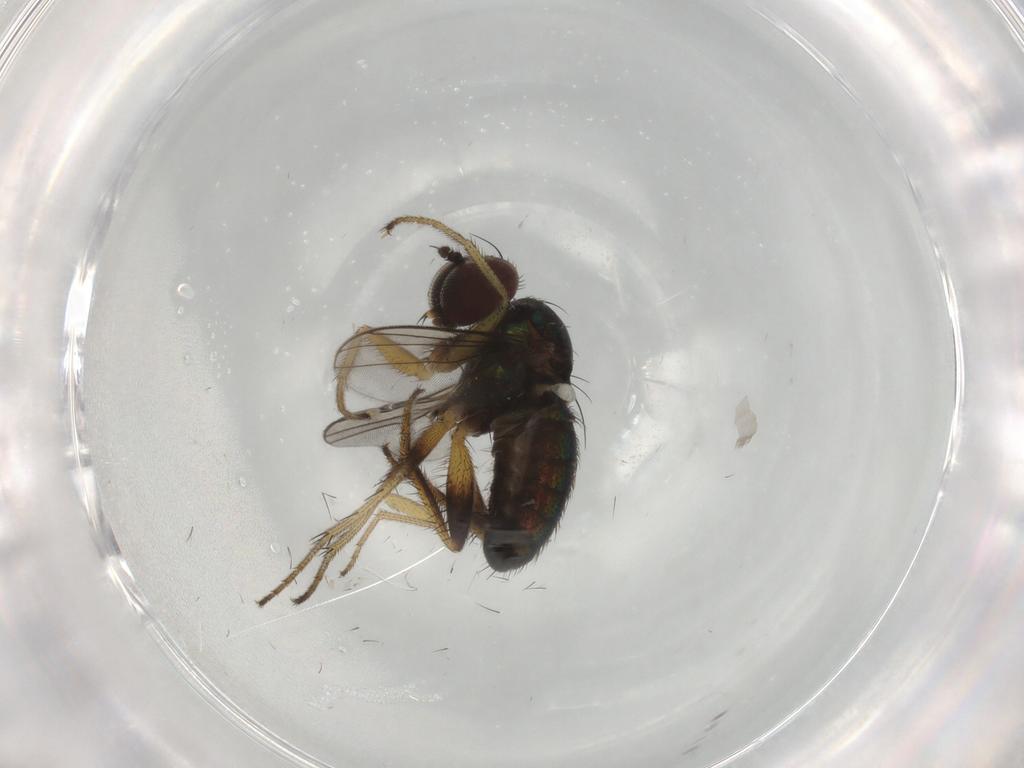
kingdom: Animalia
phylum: Arthropoda
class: Insecta
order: Diptera
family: Dolichopodidae
